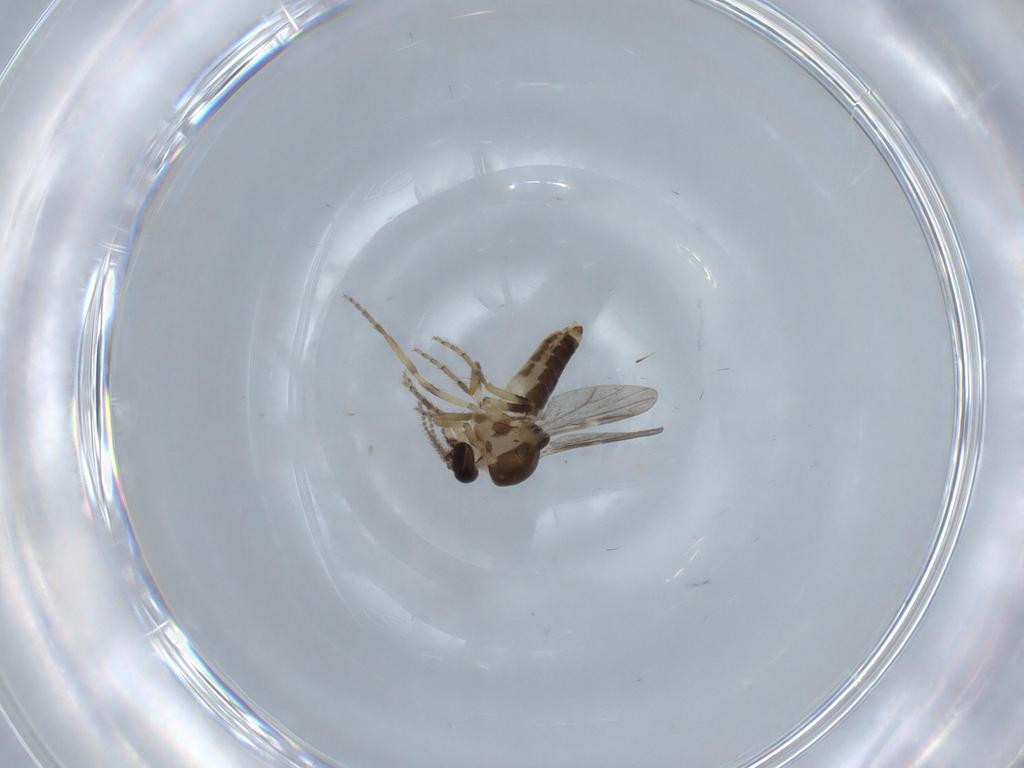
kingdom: Animalia
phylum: Arthropoda
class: Insecta
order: Diptera
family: Ceratopogonidae
